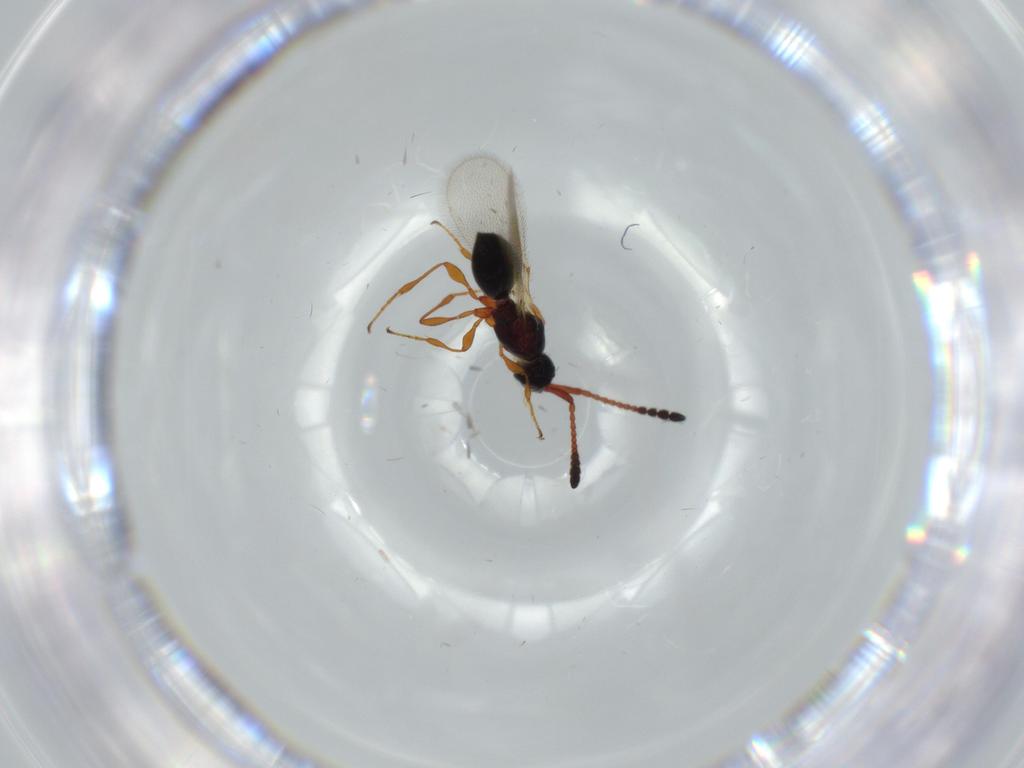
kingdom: Animalia
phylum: Arthropoda
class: Insecta
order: Hymenoptera
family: Diapriidae
